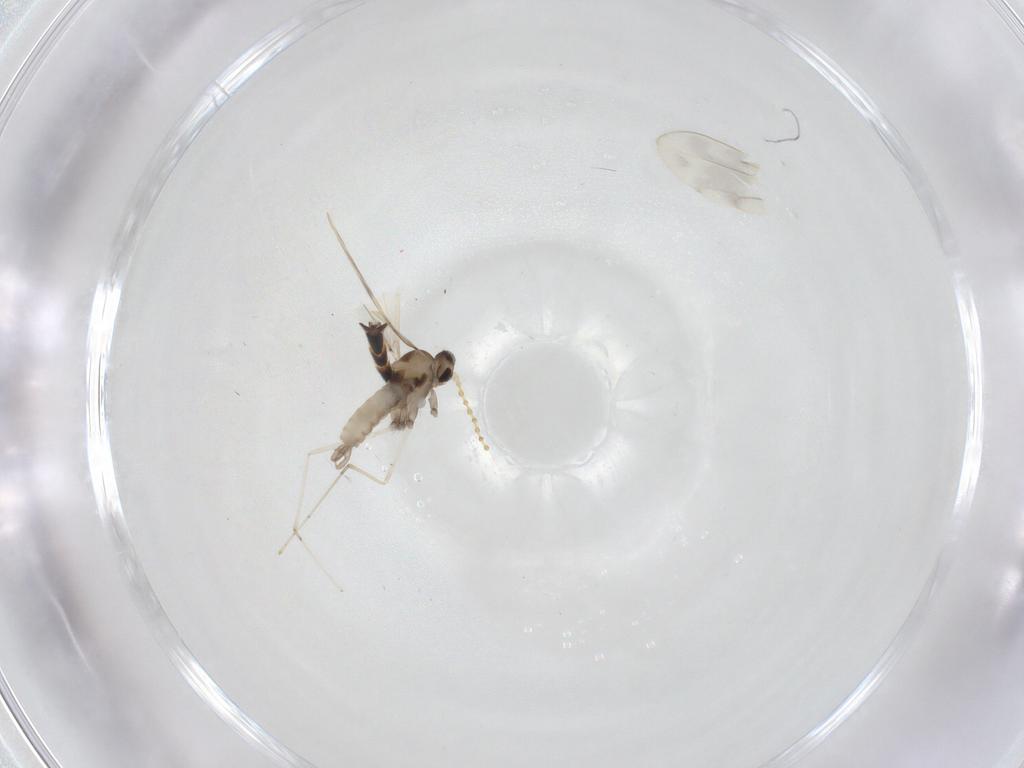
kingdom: Animalia
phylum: Arthropoda
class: Insecta
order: Diptera
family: Cecidomyiidae
